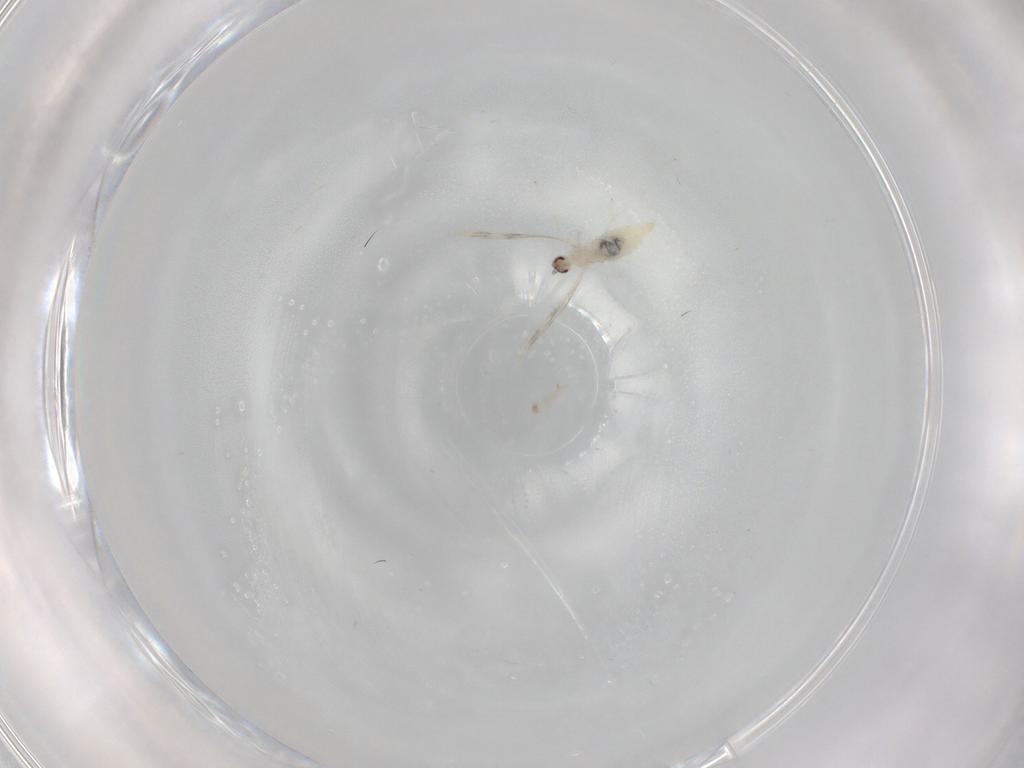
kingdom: Animalia
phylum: Arthropoda
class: Insecta
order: Diptera
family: Cecidomyiidae
